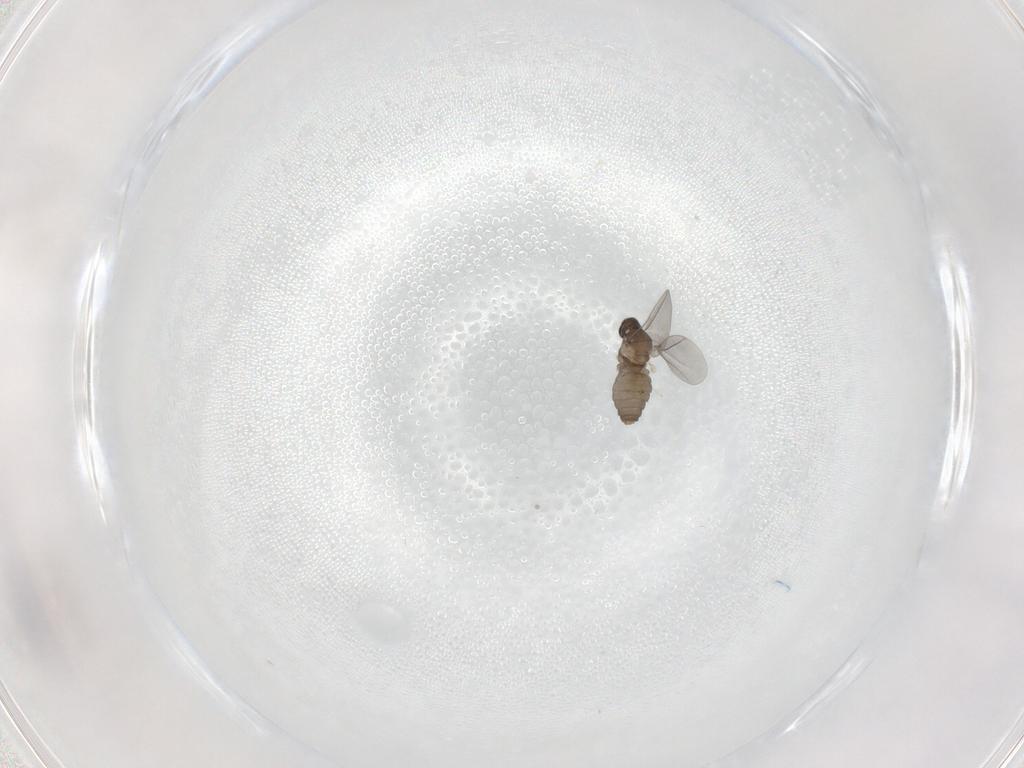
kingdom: Animalia
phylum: Arthropoda
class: Insecta
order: Diptera
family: Cecidomyiidae
